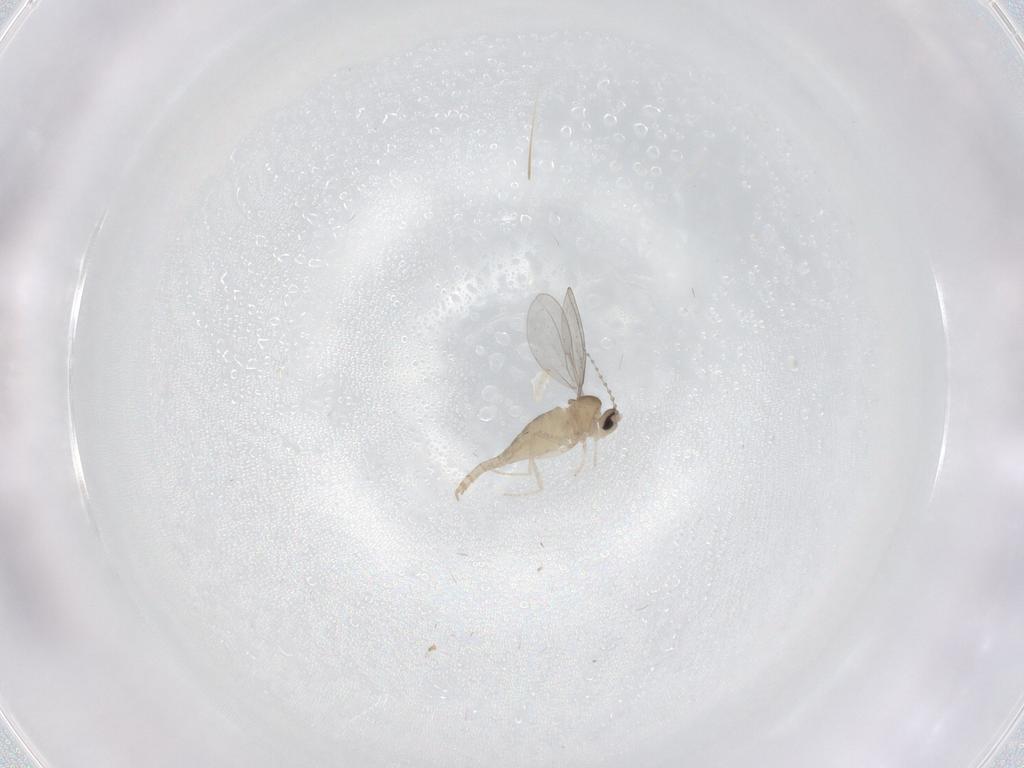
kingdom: Animalia
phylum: Arthropoda
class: Insecta
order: Diptera
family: Cecidomyiidae
